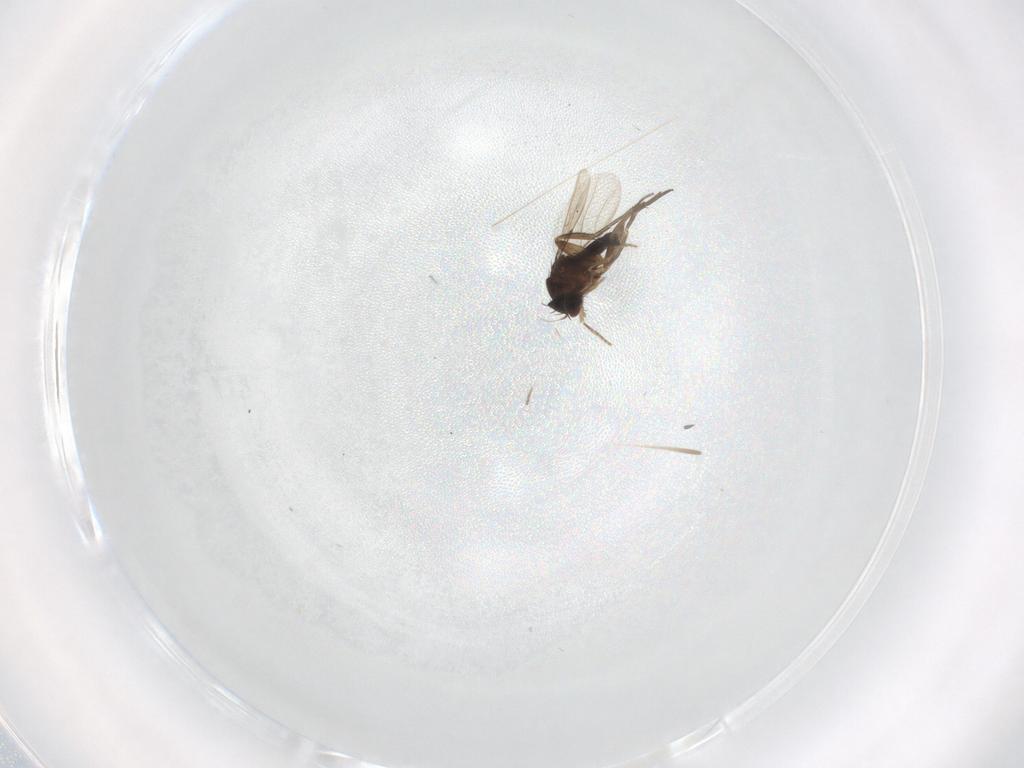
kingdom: Animalia
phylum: Arthropoda
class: Insecta
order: Diptera
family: Phoridae
